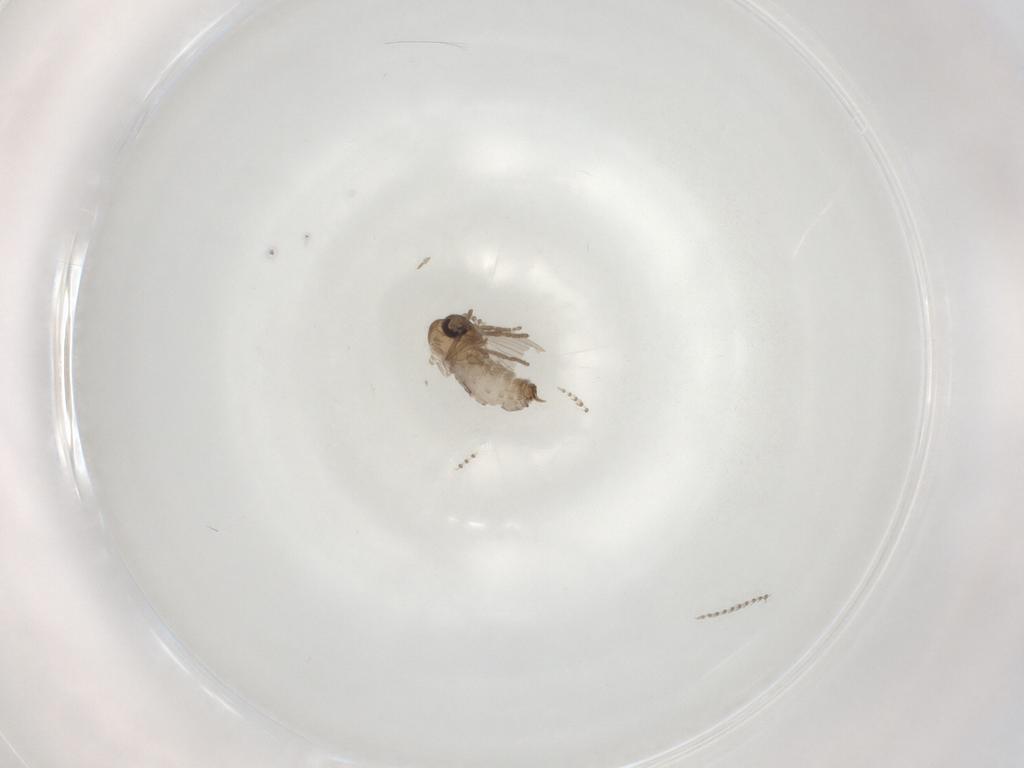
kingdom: Animalia
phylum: Arthropoda
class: Insecta
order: Diptera
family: Psychodidae
